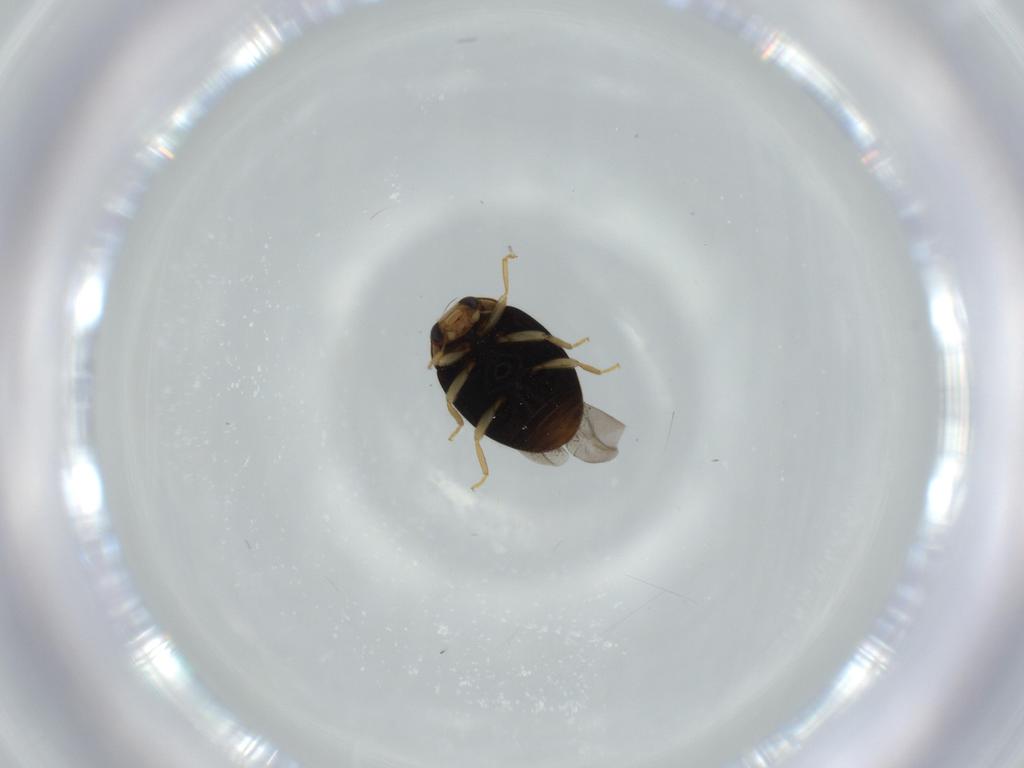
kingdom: Animalia
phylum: Arthropoda
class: Insecta
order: Coleoptera
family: Coccinellidae
